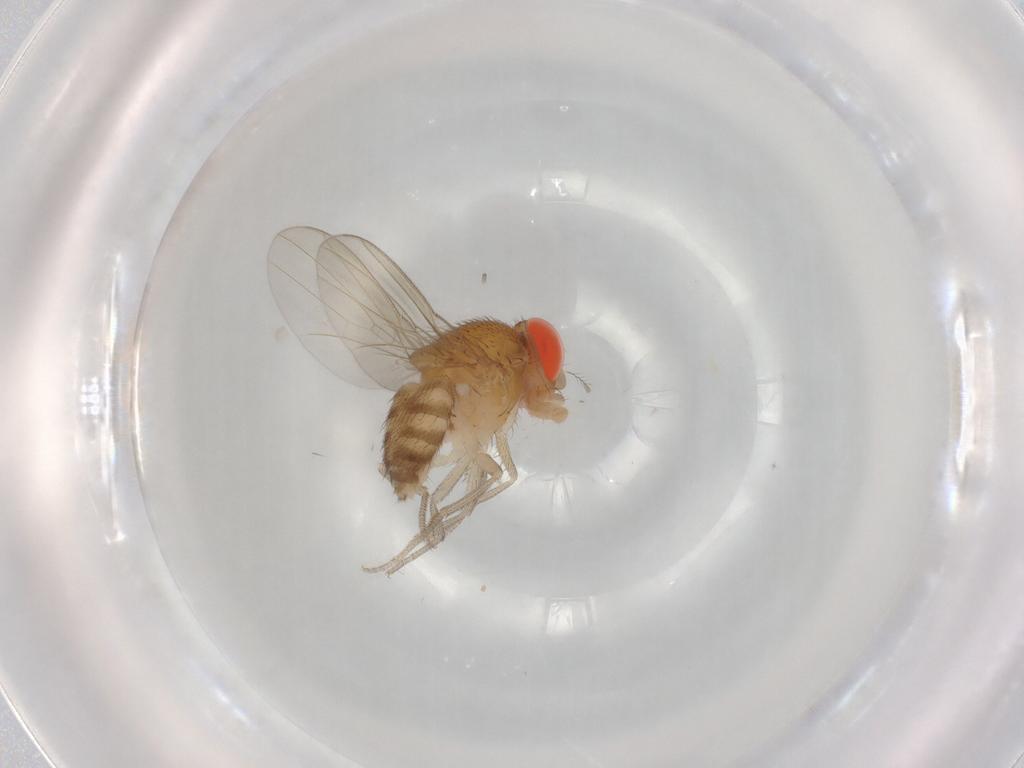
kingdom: Animalia
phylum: Arthropoda
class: Insecta
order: Diptera
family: Drosophilidae
